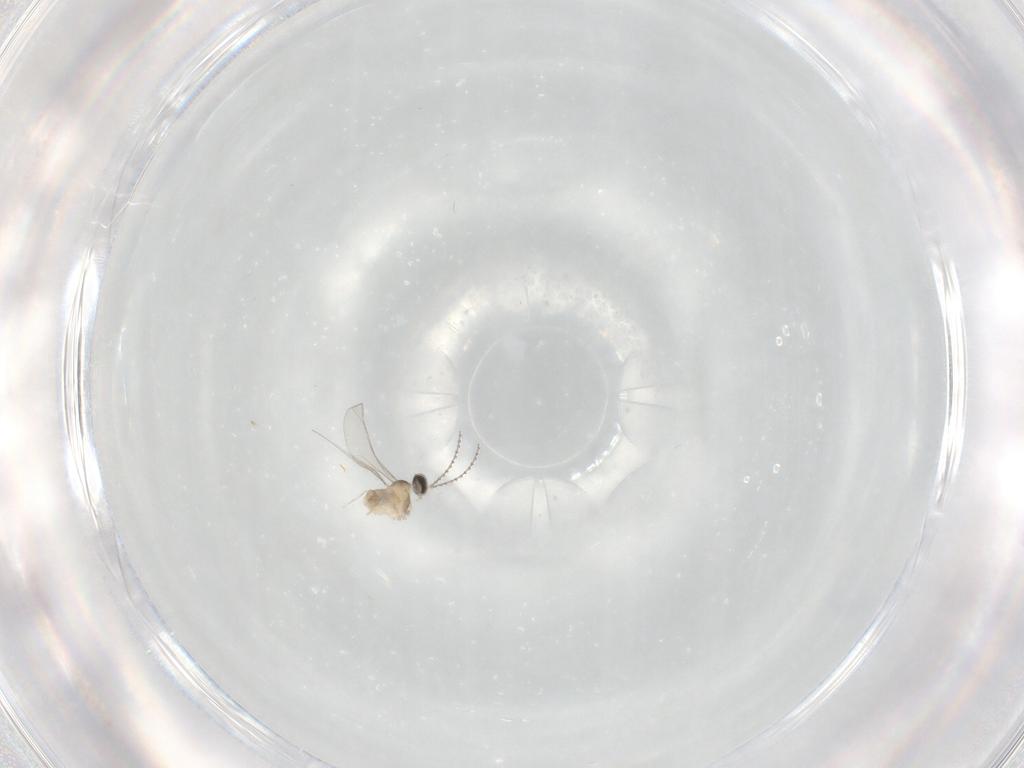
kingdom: Animalia
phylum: Arthropoda
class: Insecta
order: Diptera
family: Cecidomyiidae
